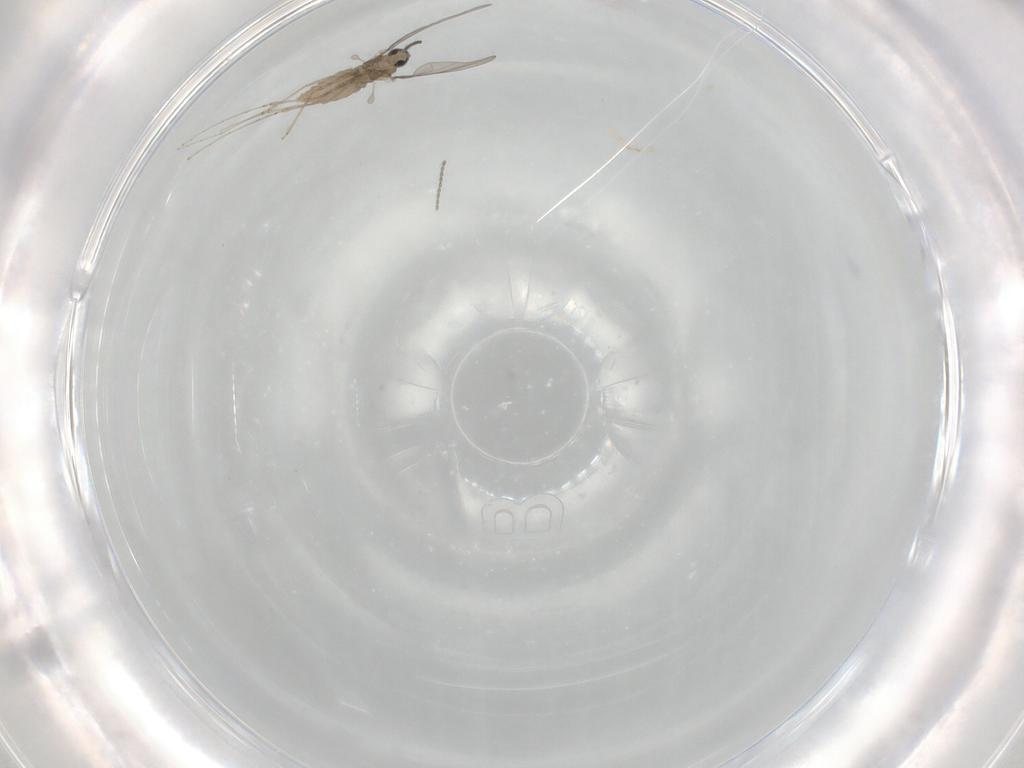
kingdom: Animalia
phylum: Arthropoda
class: Insecta
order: Diptera
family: Cecidomyiidae
